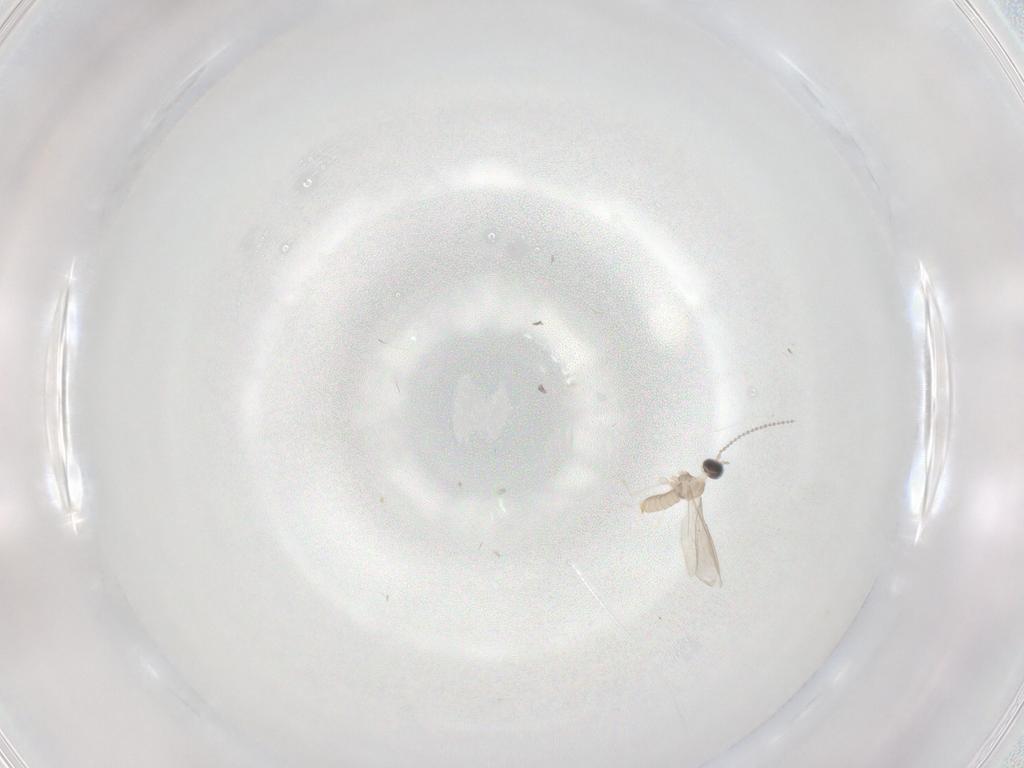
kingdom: Animalia
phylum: Arthropoda
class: Insecta
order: Diptera
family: Cecidomyiidae
